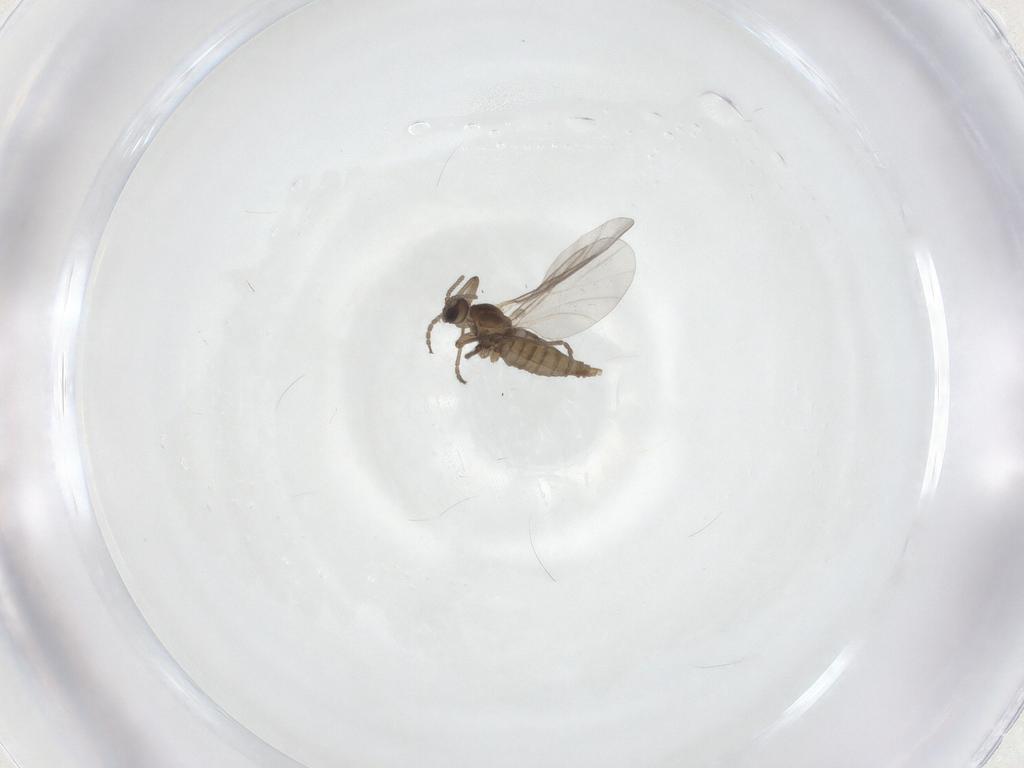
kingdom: Animalia
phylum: Arthropoda
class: Insecta
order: Diptera
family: Cecidomyiidae
